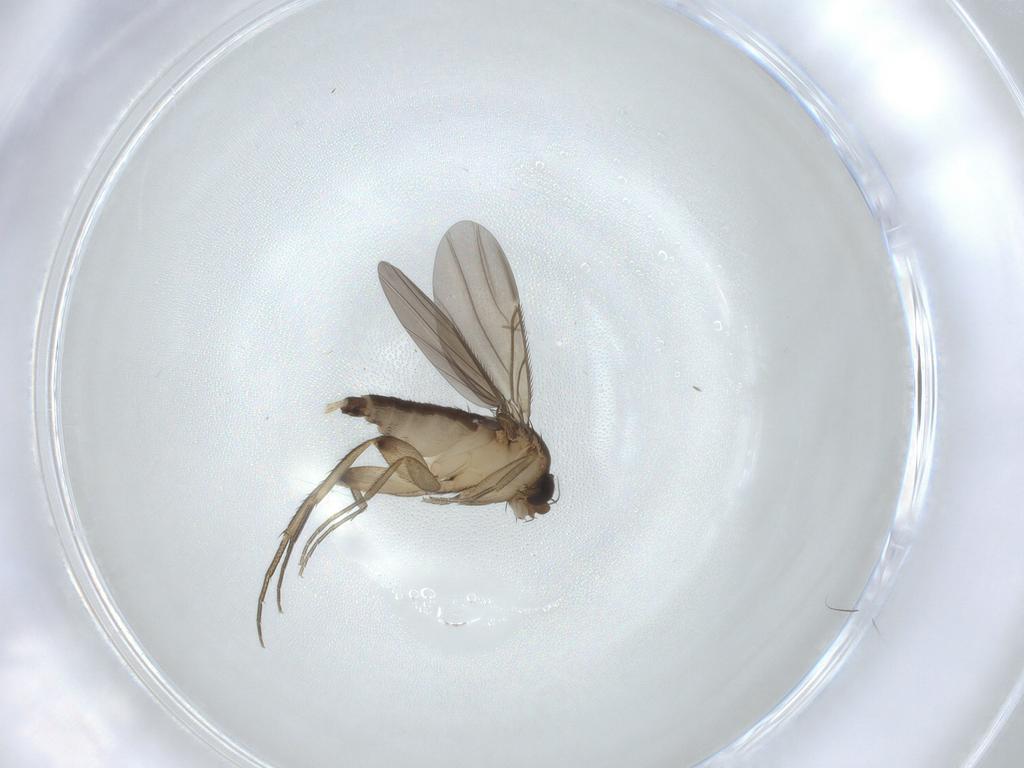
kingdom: Animalia
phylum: Arthropoda
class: Insecta
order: Diptera
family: Phoridae
